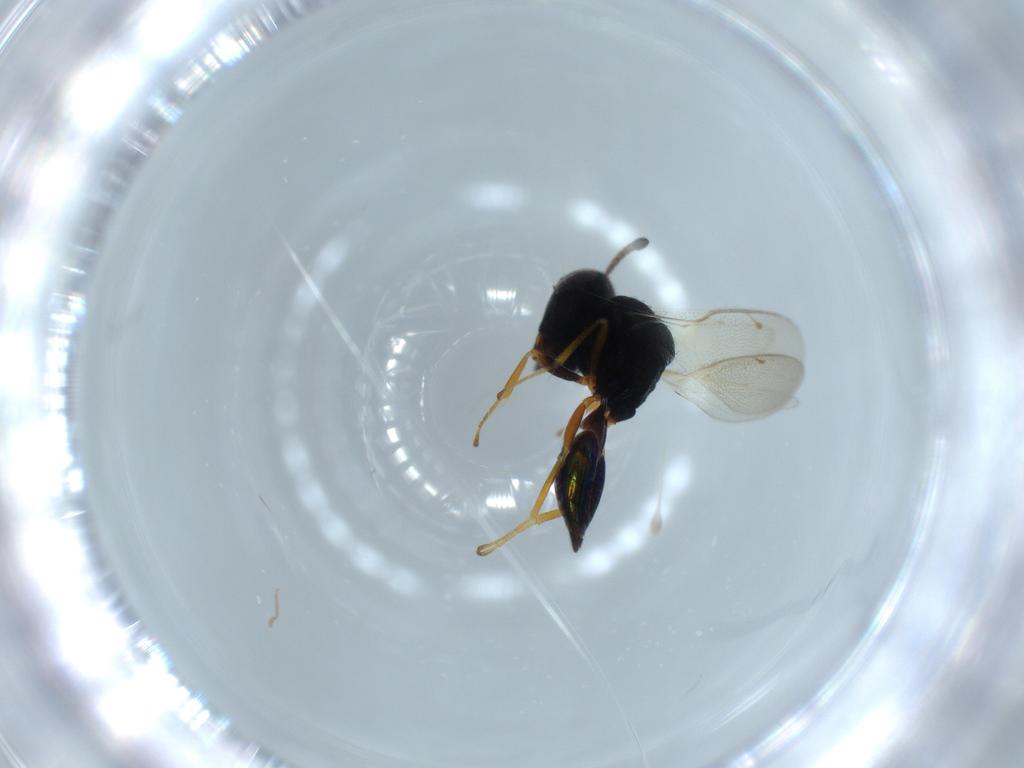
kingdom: Animalia
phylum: Arthropoda
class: Insecta
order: Hymenoptera
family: Pteromalidae
